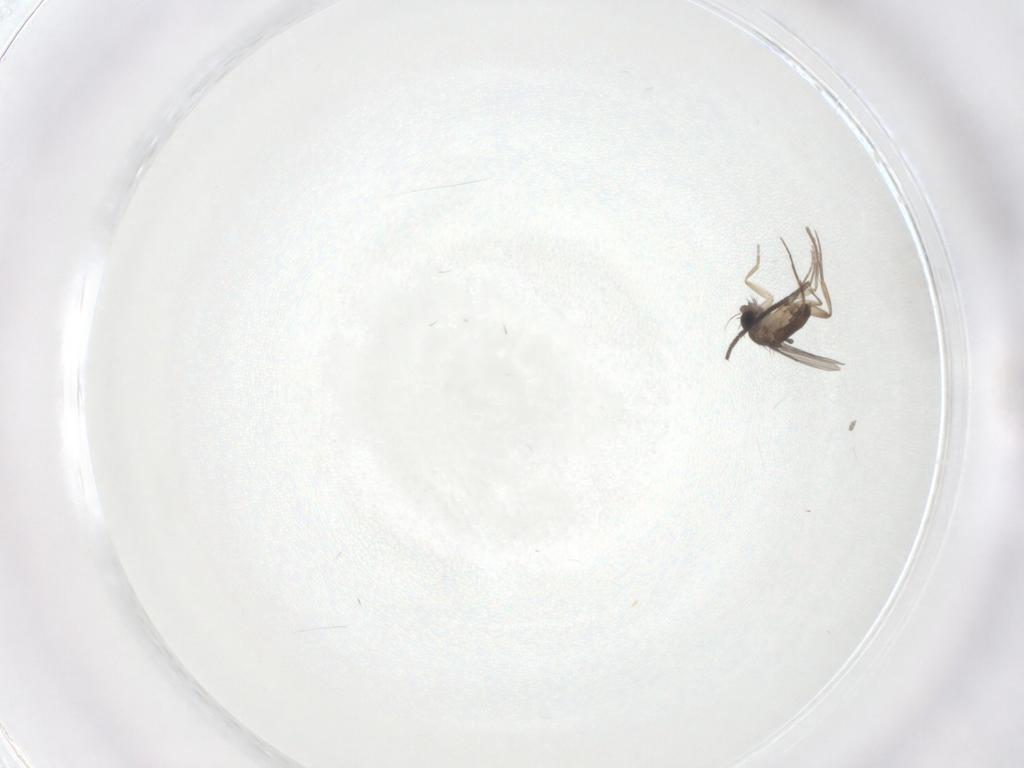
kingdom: Animalia
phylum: Arthropoda
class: Insecta
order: Diptera
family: Phoridae
